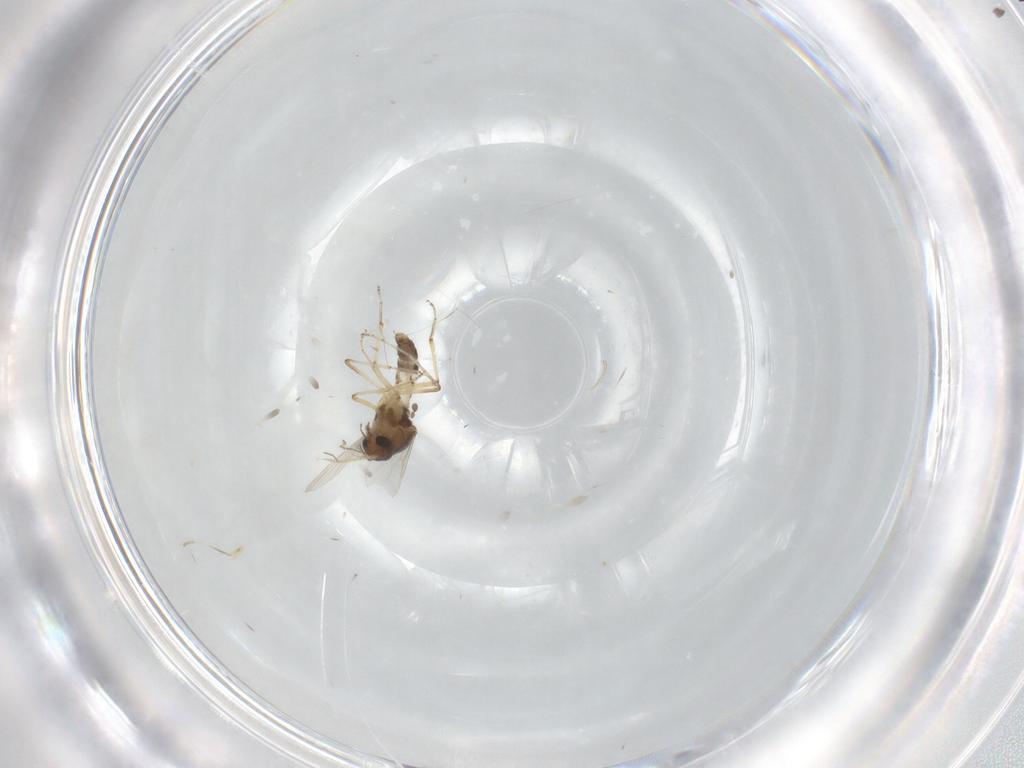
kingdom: Animalia
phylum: Arthropoda
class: Insecta
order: Diptera
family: Ceratopogonidae
